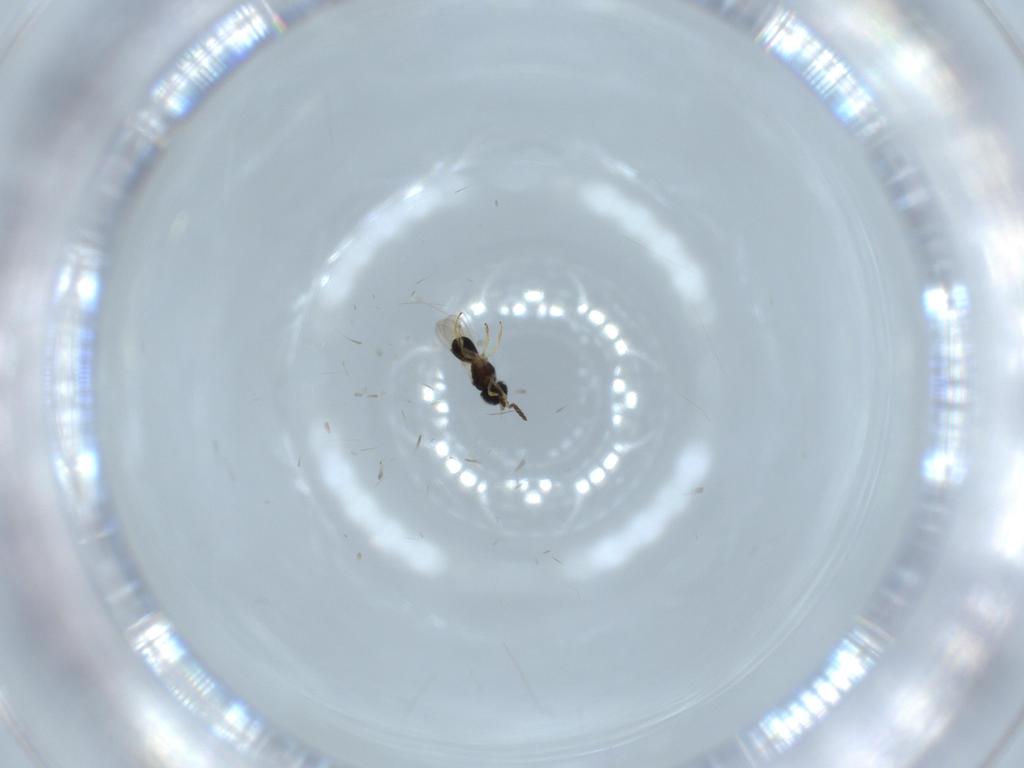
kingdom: Animalia
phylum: Arthropoda
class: Insecta
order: Hymenoptera
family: Scelionidae
